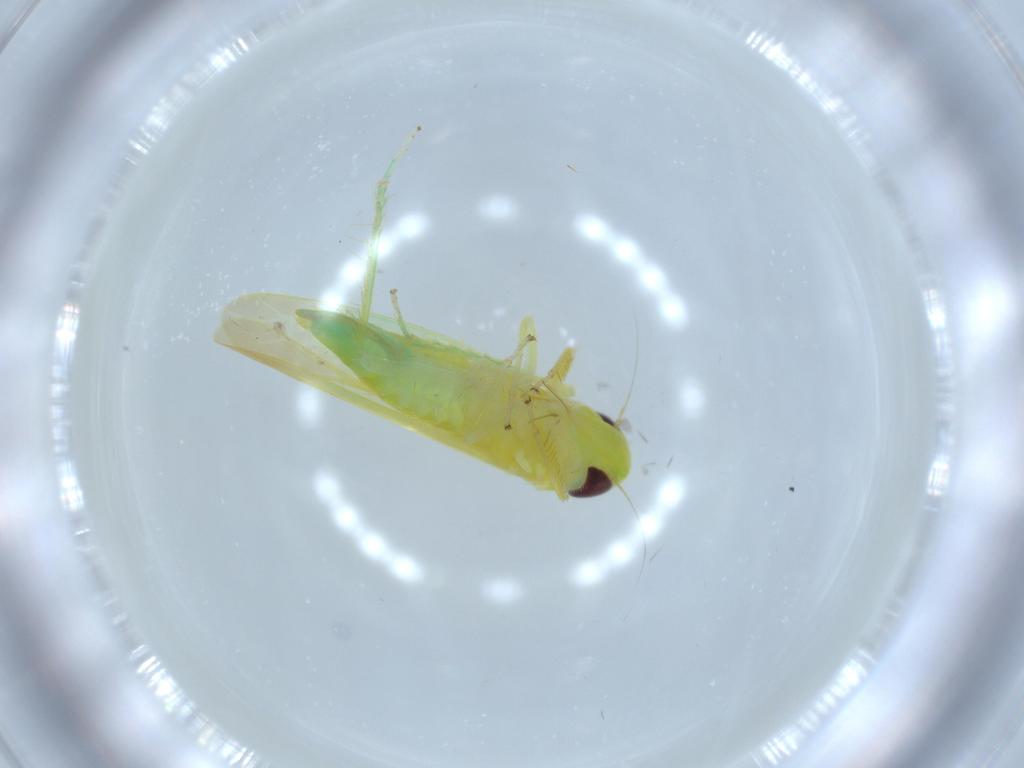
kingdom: Animalia
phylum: Arthropoda
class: Insecta
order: Hemiptera
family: Cicadellidae
